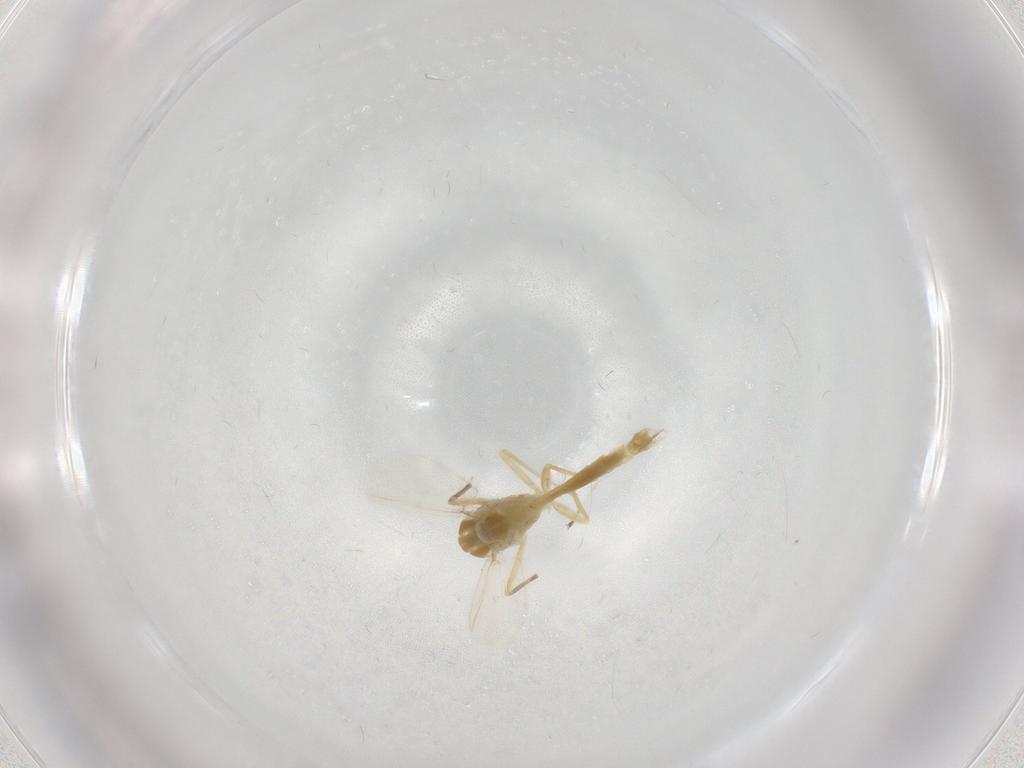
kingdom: Animalia
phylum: Arthropoda
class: Insecta
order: Diptera
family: Chironomidae
